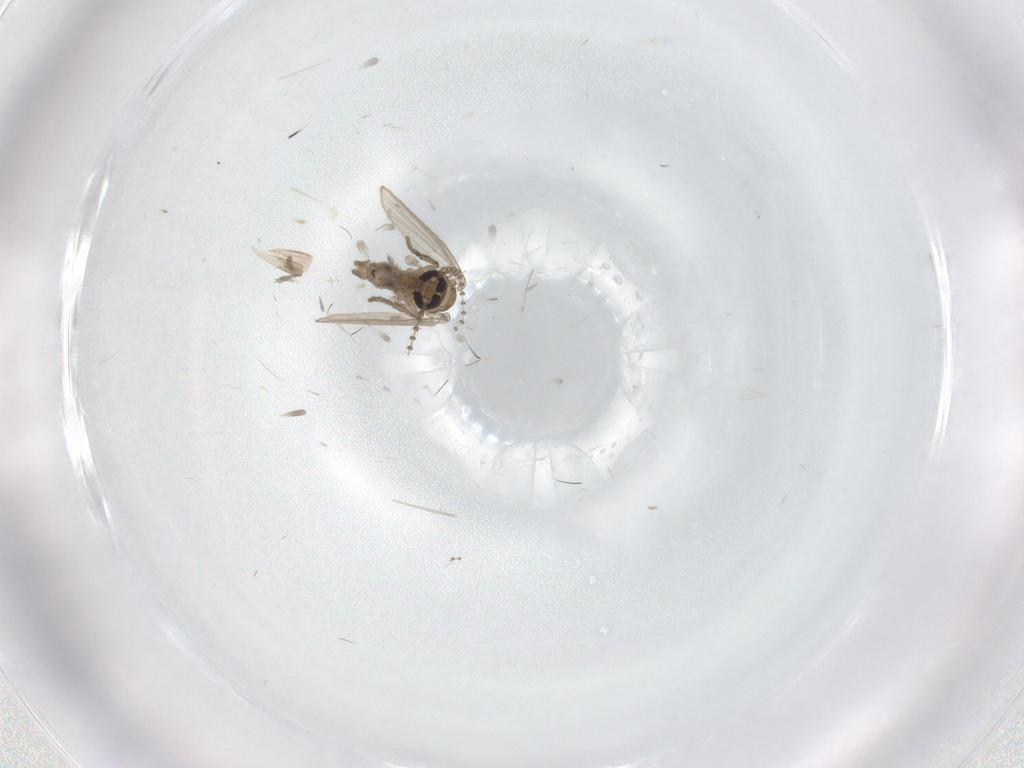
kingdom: Animalia
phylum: Arthropoda
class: Insecta
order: Diptera
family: Psychodidae
